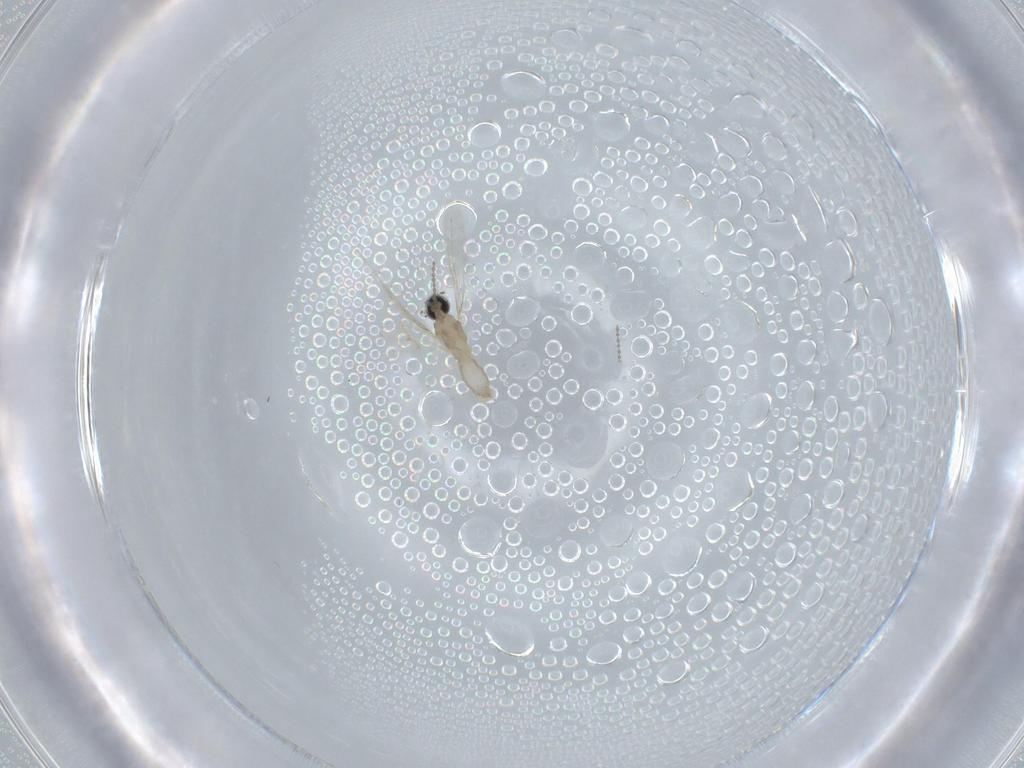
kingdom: Animalia
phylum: Arthropoda
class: Insecta
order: Diptera
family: Cecidomyiidae
